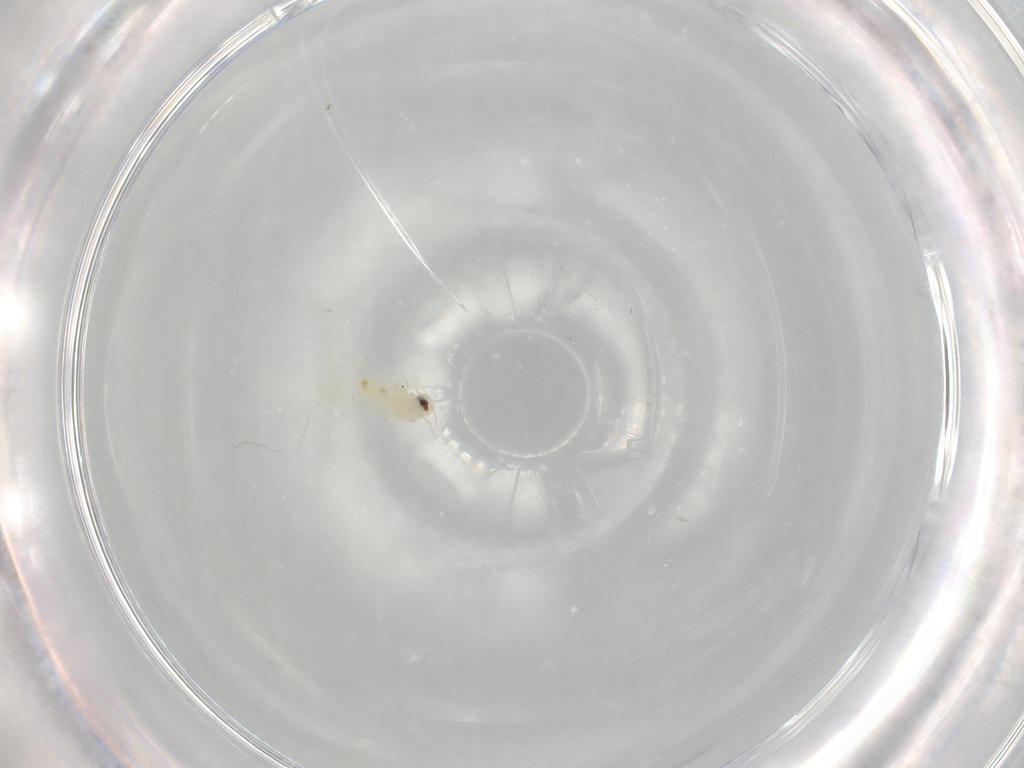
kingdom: Animalia
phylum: Arthropoda
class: Insecta
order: Hemiptera
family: Aleyrodidae
